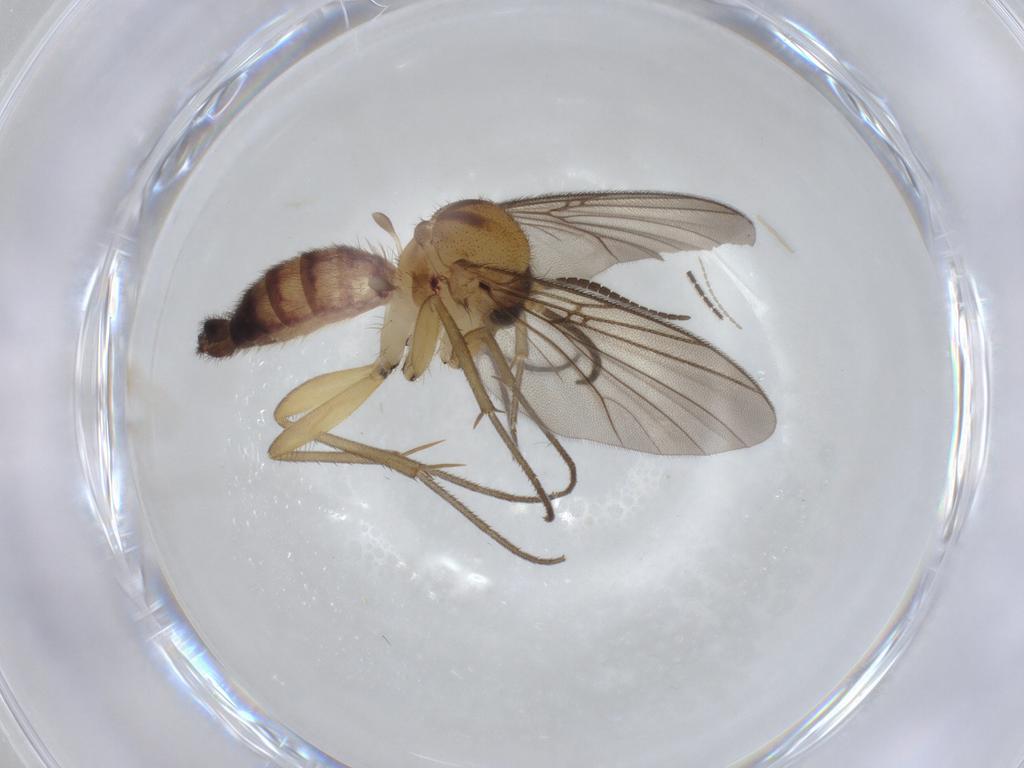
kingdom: Animalia
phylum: Arthropoda
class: Insecta
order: Diptera
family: Mycetophilidae
